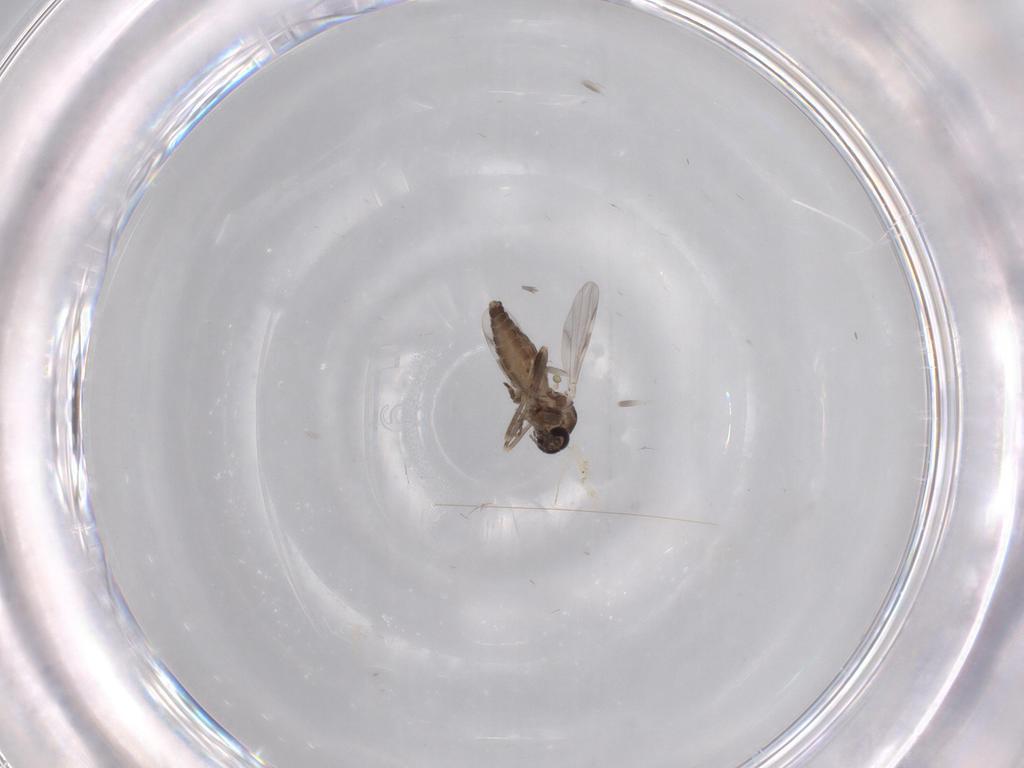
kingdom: Animalia
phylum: Arthropoda
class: Insecta
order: Diptera
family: Ceratopogonidae
